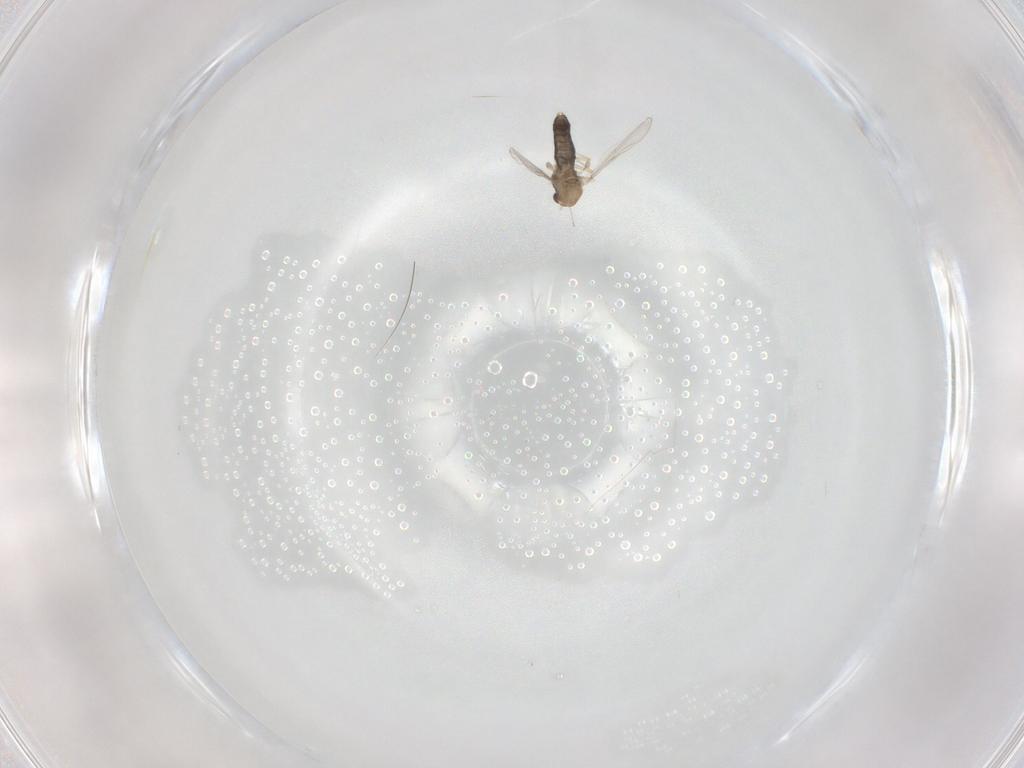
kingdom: Animalia
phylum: Arthropoda
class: Insecta
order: Diptera
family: Chironomidae
